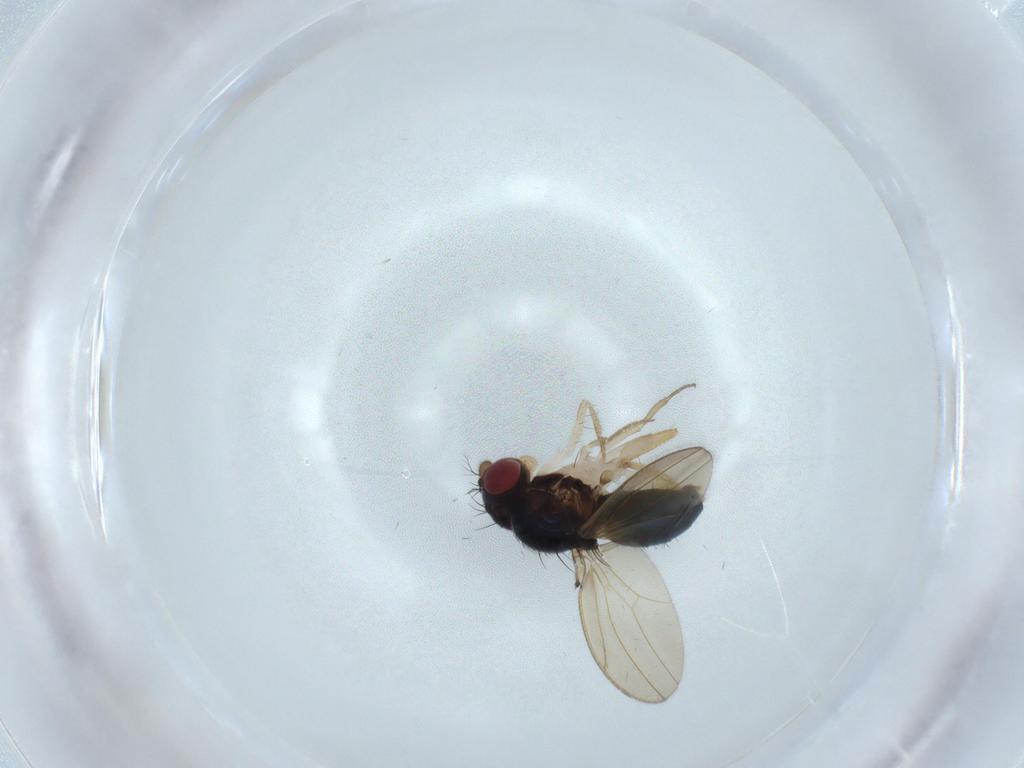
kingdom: Animalia
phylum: Arthropoda
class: Insecta
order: Diptera
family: Drosophilidae
